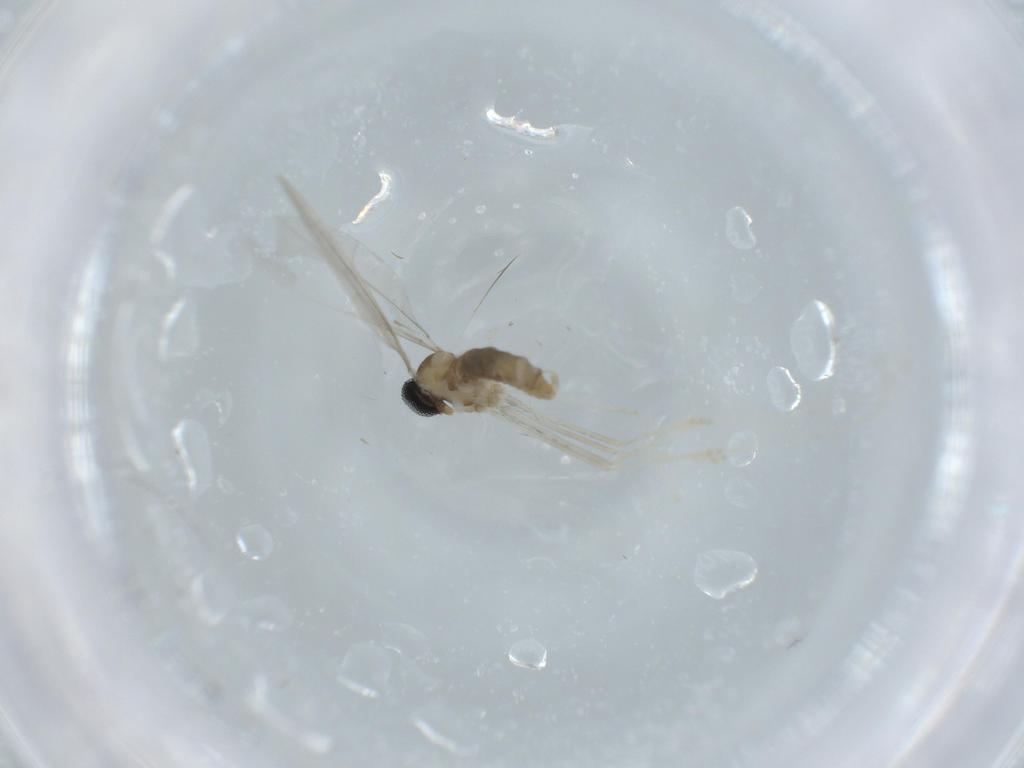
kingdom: Animalia
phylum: Arthropoda
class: Insecta
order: Diptera
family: Cecidomyiidae
